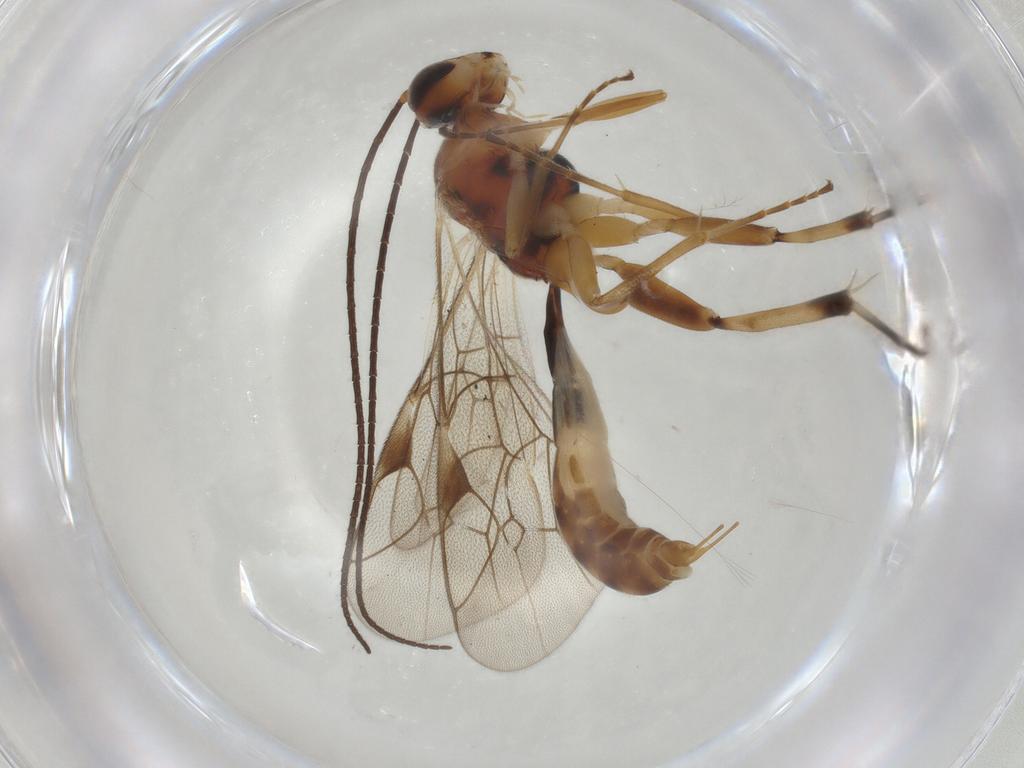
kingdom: Animalia
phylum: Arthropoda
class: Insecta
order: Hymenoptera
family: Ichneumonidae
